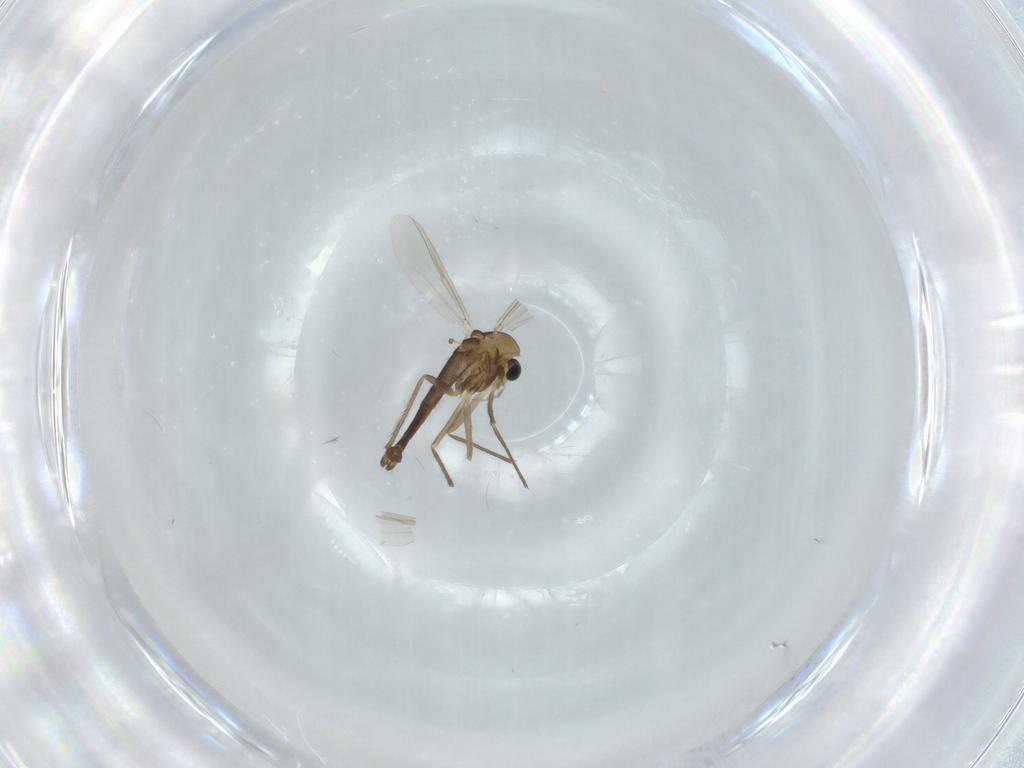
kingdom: Animalia
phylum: Arthropoda
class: Insecta
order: Diptera
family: Chironomidae
